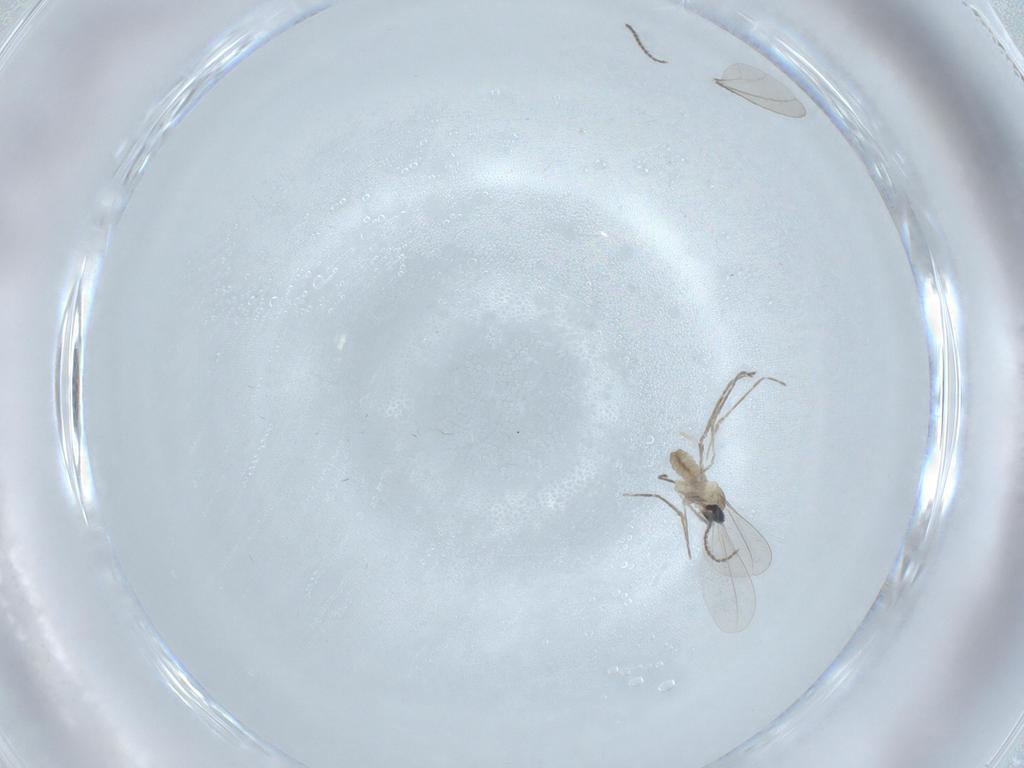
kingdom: Animalia
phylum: Arthropoda
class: Insecta
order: Diptera
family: Cecidomyiidae
